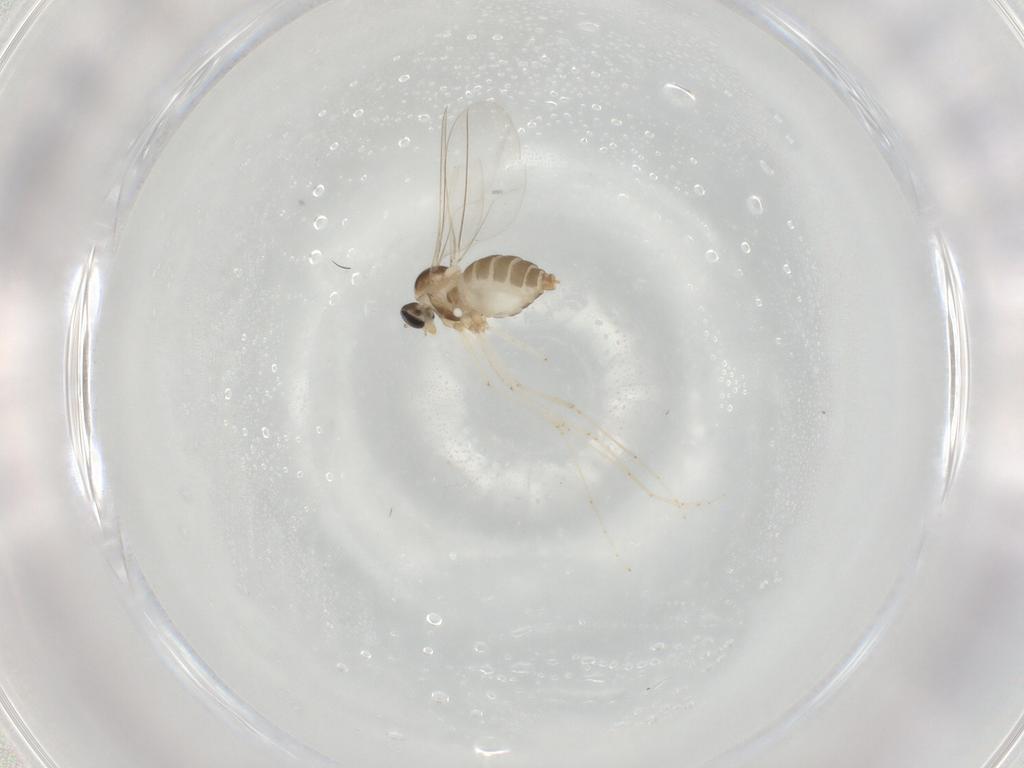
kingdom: Animalia
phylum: Arthropoda
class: Insecta
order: Diptera
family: Cecidomyiidae
